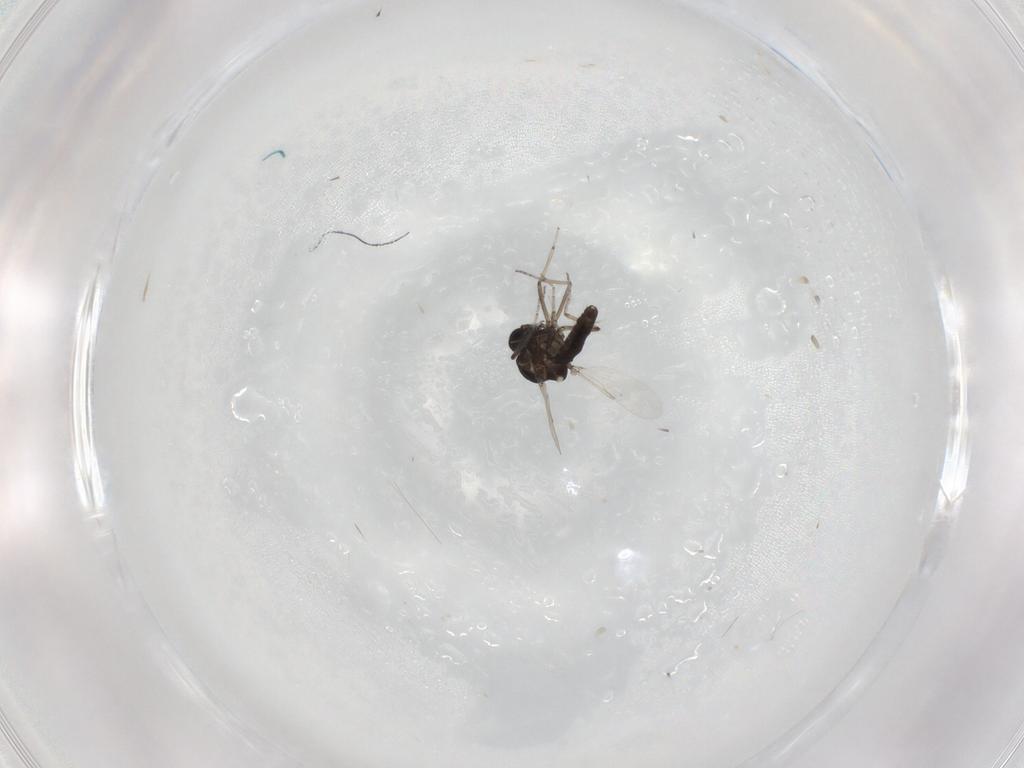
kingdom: Animalia
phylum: Arthropoda
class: Insecta
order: Diptera
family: Ceratopogonidae
